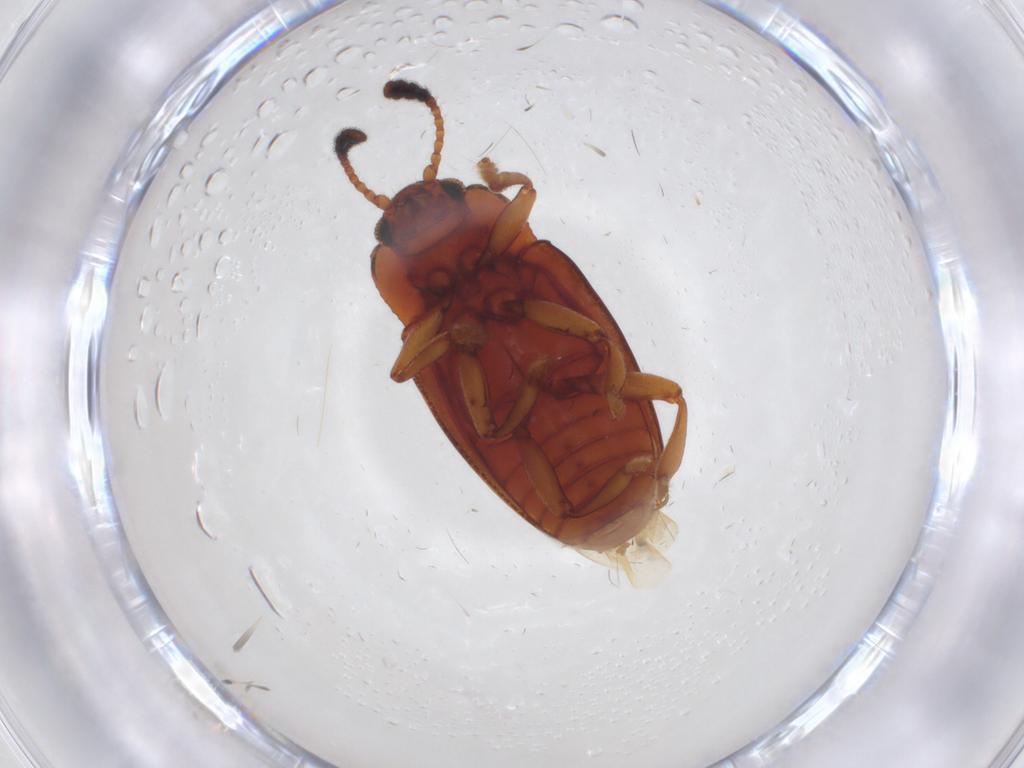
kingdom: Animalia
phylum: Arthropoda
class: Insecta
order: Coleoptera
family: Erotylidae
